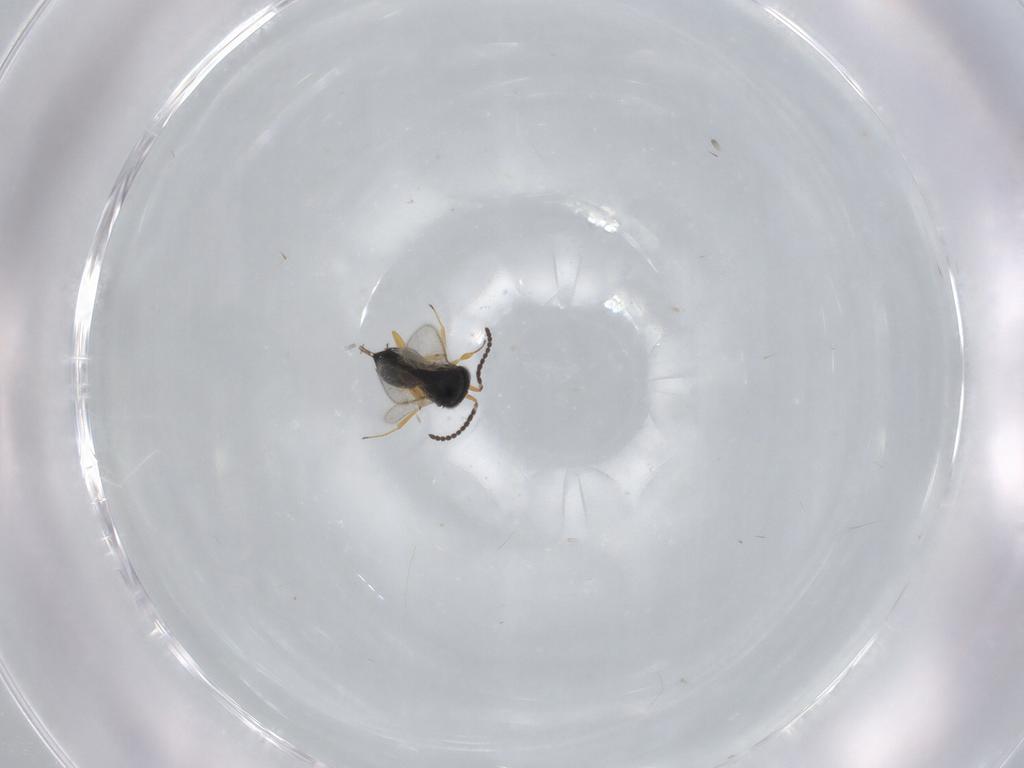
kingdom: Animalia
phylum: Arthropoda
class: Insecta
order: Hymenoptera
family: Scelionidae
